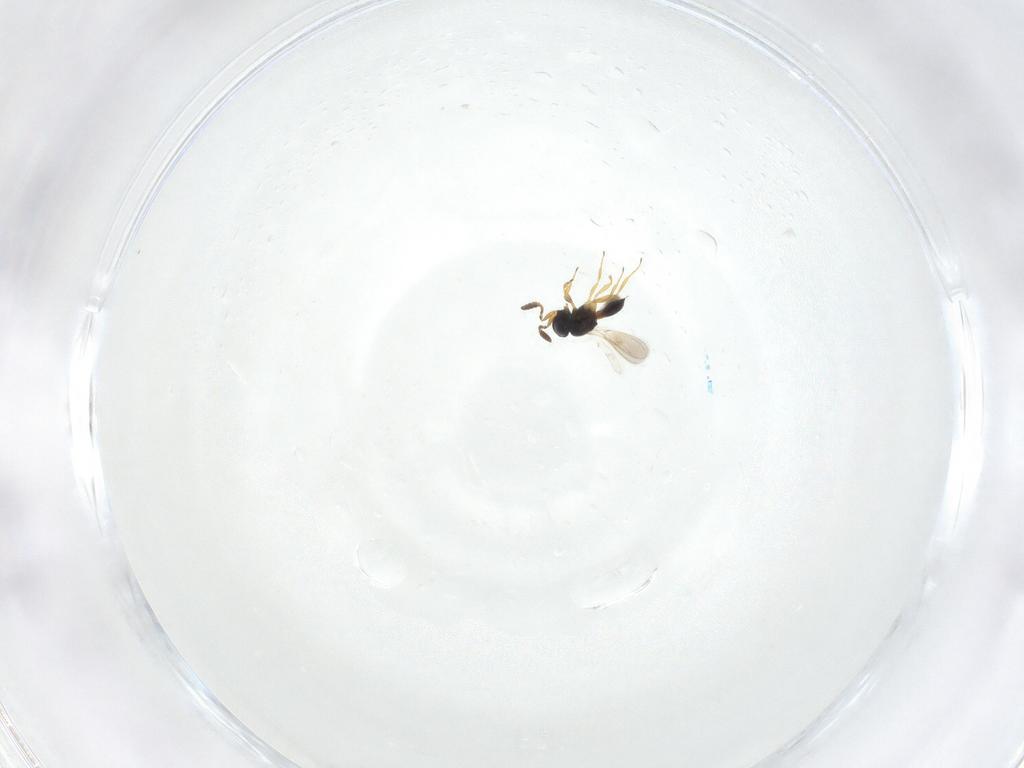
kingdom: Animalia
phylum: Arthropoda
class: Insecta
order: Hymenoptera
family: Scelionidae
